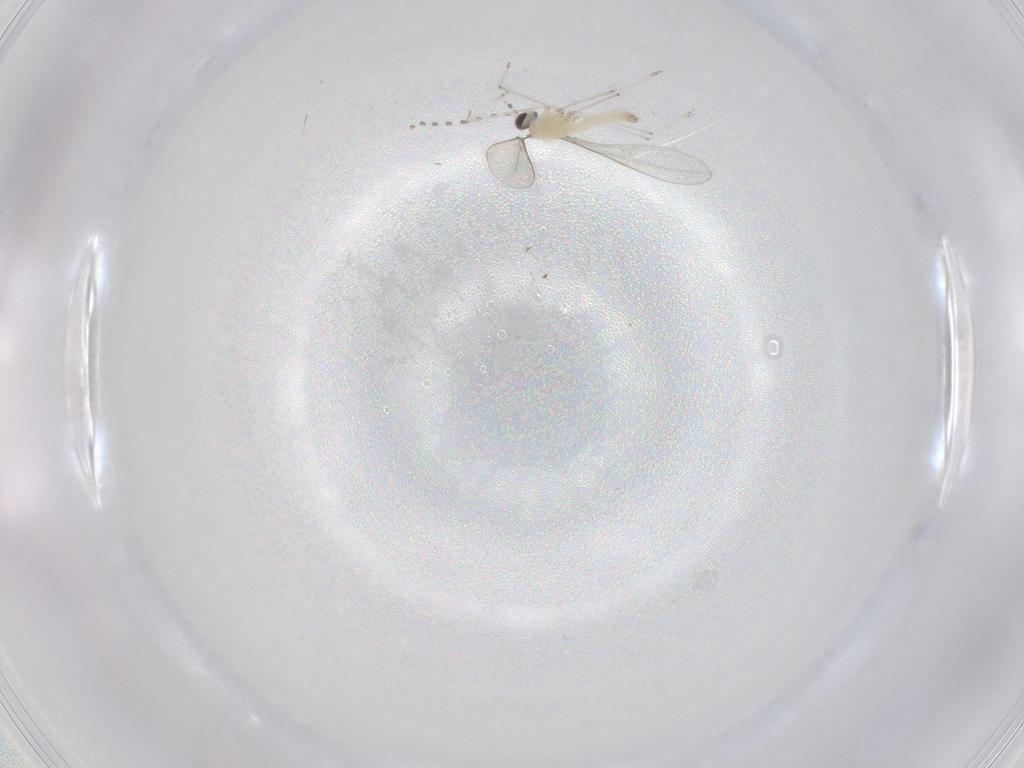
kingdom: Animalia
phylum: Arthropoda
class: Insecta
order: Diptera
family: Cecidomyiidae
